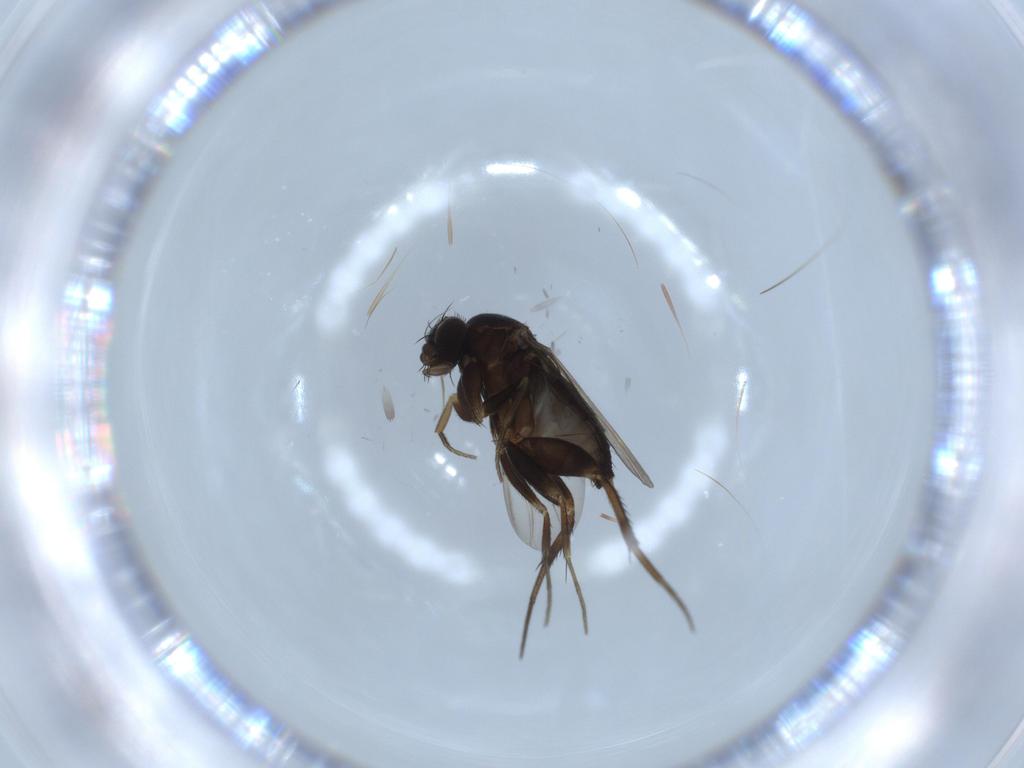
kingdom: Animalia
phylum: Arthropoda
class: Insecta
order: Diptera
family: Phoridae
